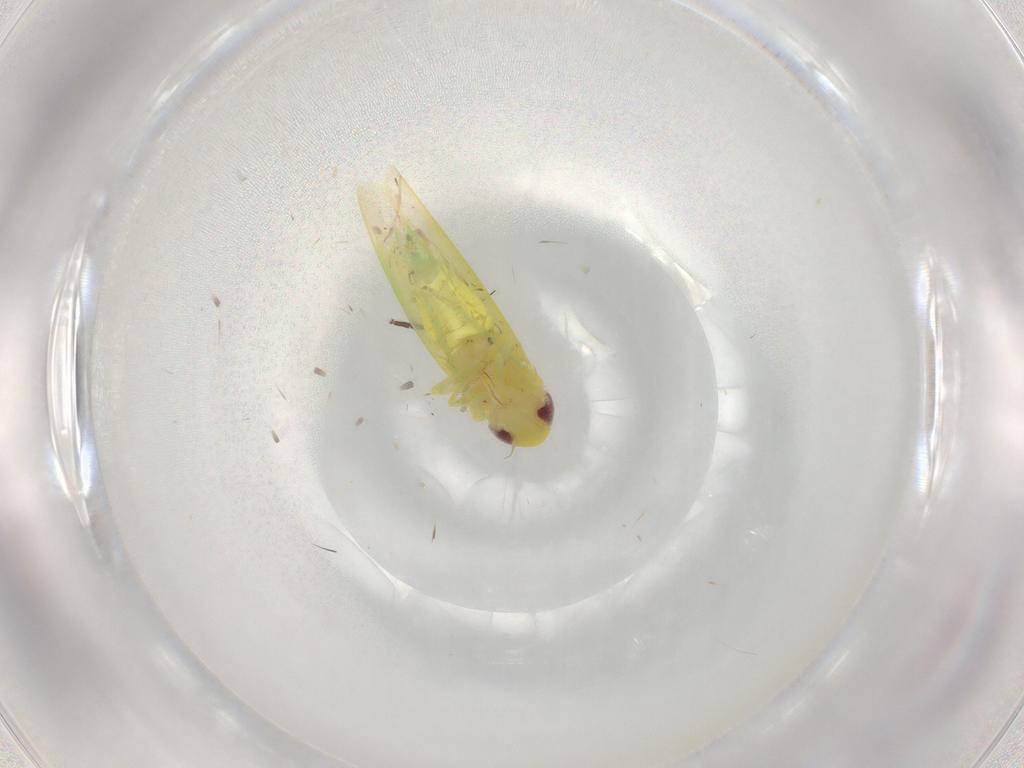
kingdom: Animalia
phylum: Arthropoda
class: Insecta
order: Hemiptera
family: Cicadellidae
